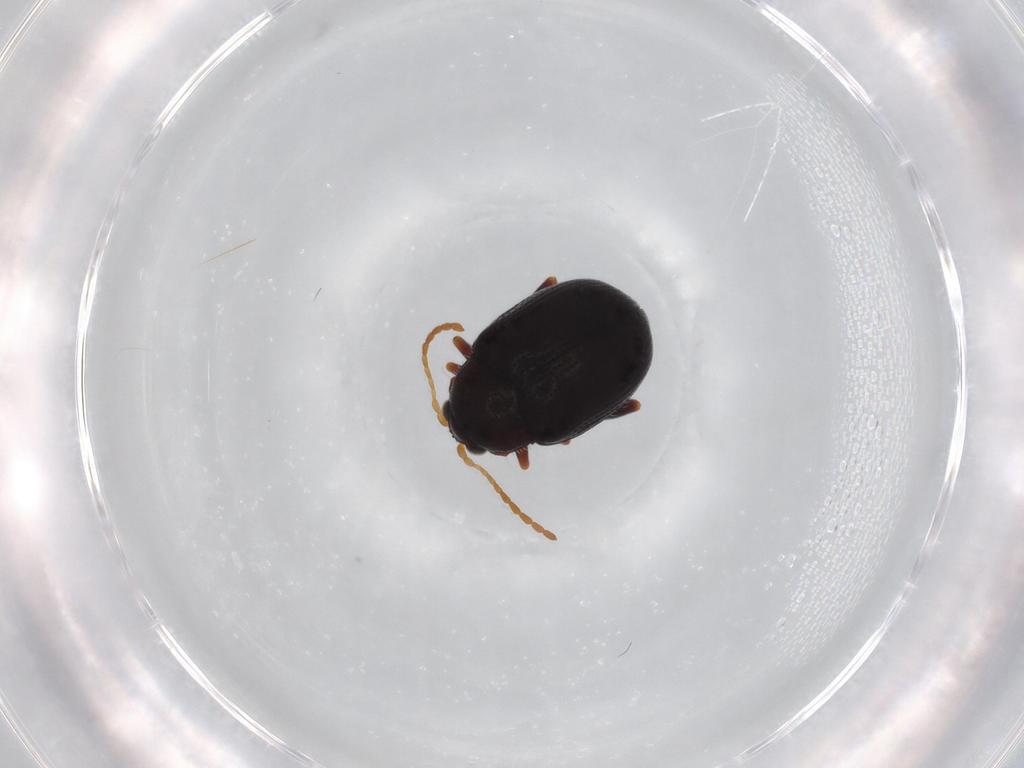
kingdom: Animalia
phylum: Arthropoda
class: Insecta
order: Coleoptera
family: Chrysomelidae
